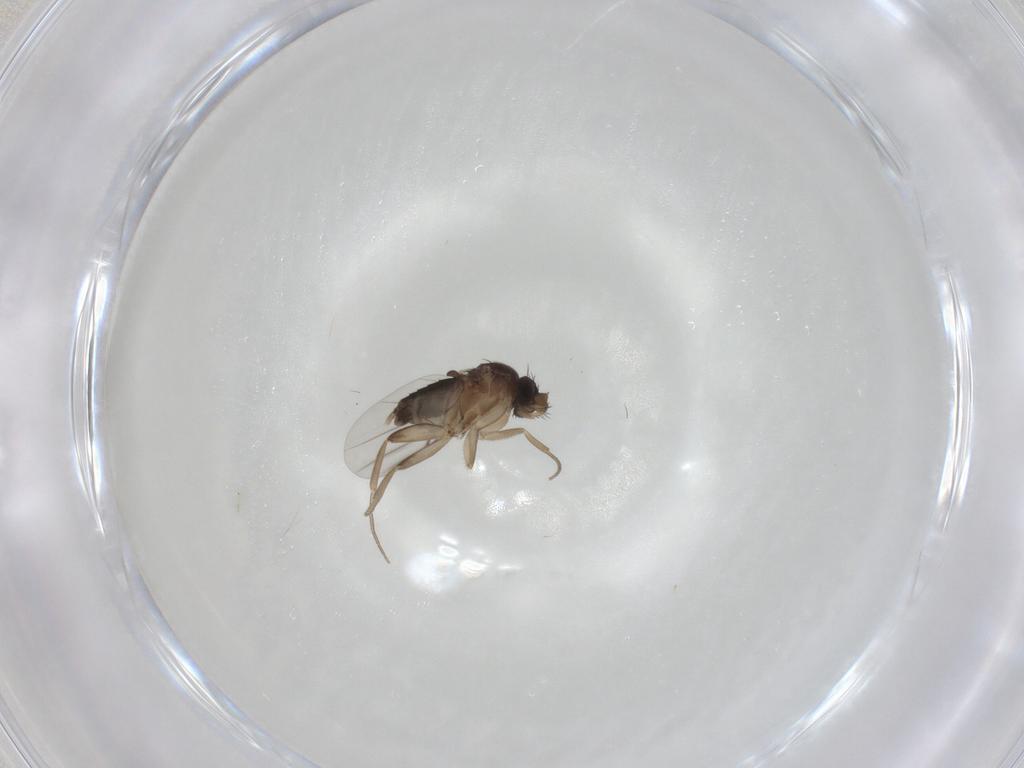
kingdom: Animalia
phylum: Arthropoda
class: Insecta
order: Diptera
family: Phoridae
